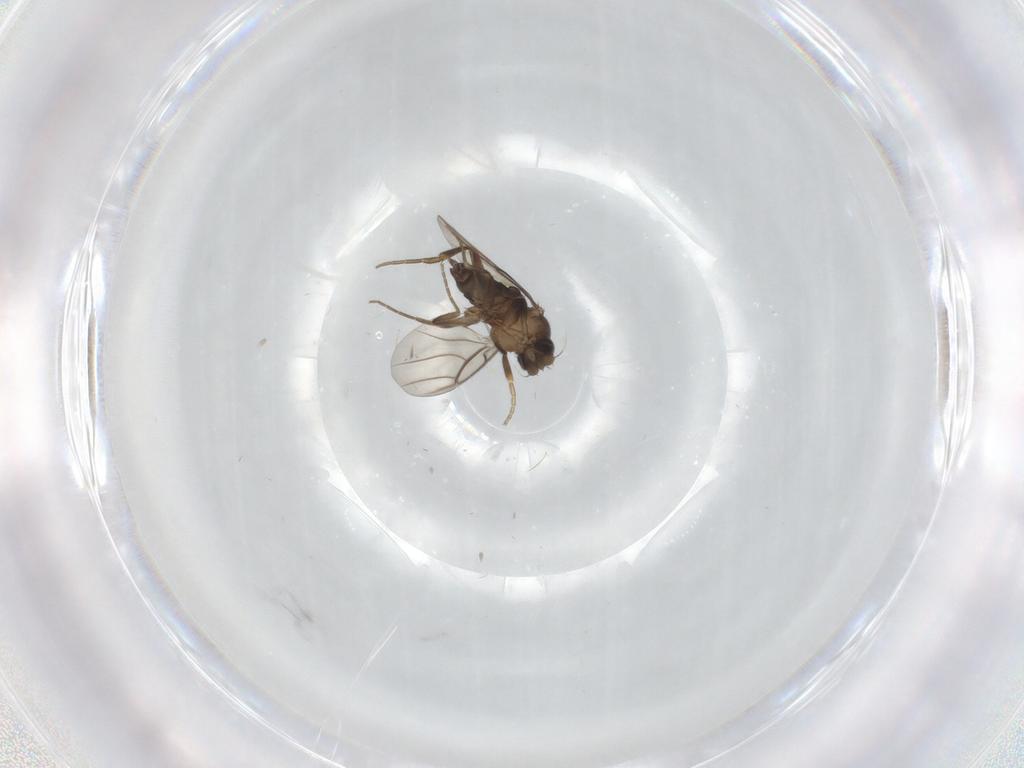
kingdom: Animalia
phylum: Arthropoda
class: Insecta
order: Diptera
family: Phoridae
